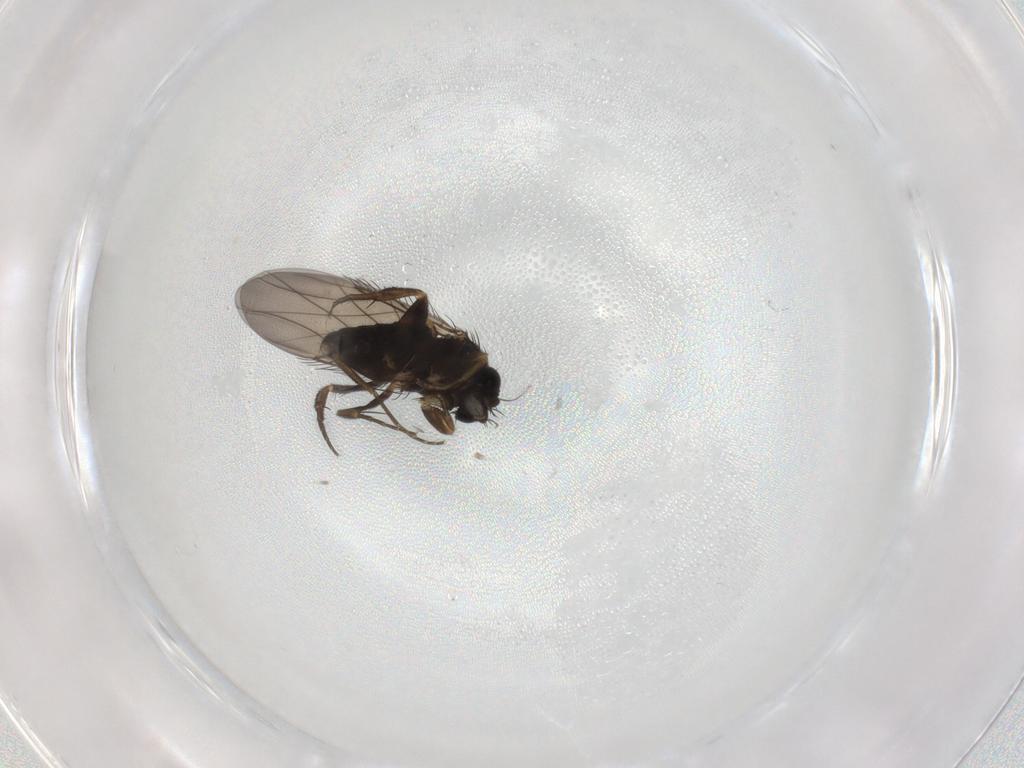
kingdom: Animalia
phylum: Arthropoda
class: Insecta
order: Diptera
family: Phoridae
